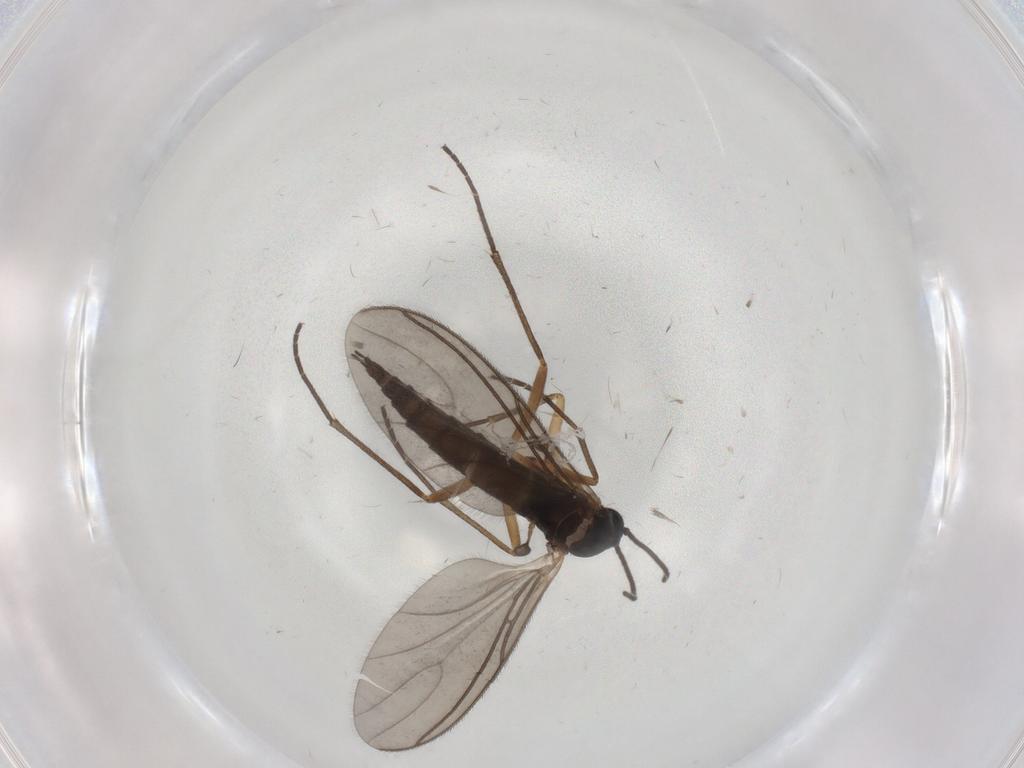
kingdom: Animalia
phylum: Arthropoda
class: Insecta
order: Diptera
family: Sciaridae
